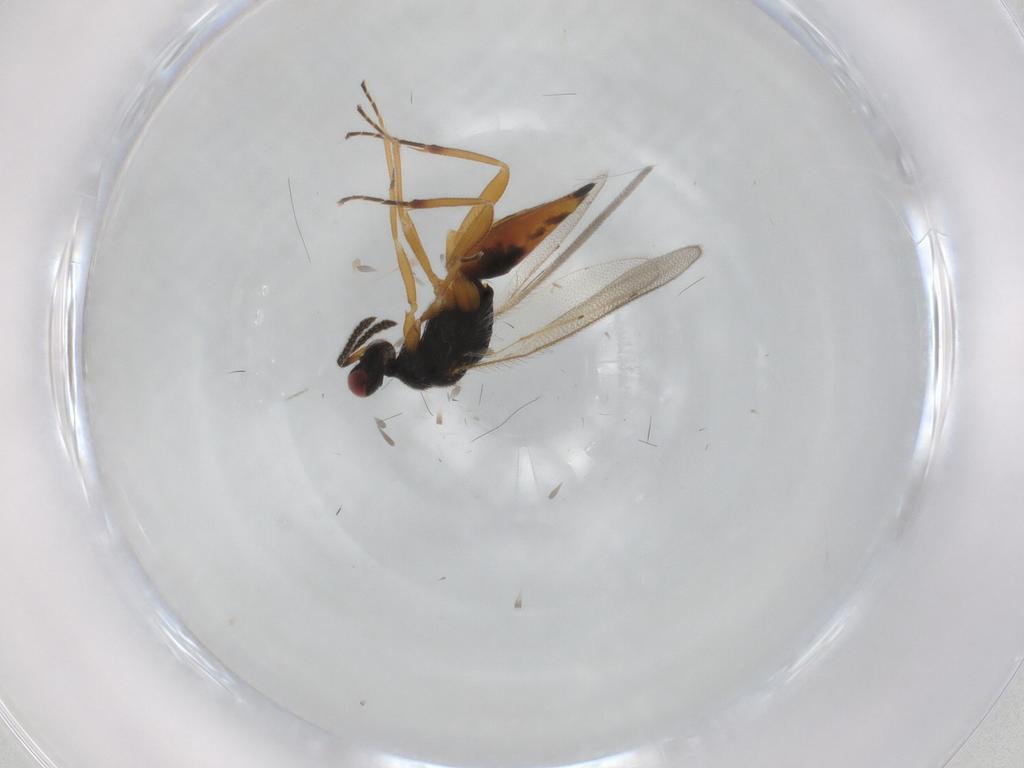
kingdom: Animalia
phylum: Arthropoda
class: Insecta
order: Hymenoptera
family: Eulophidae
